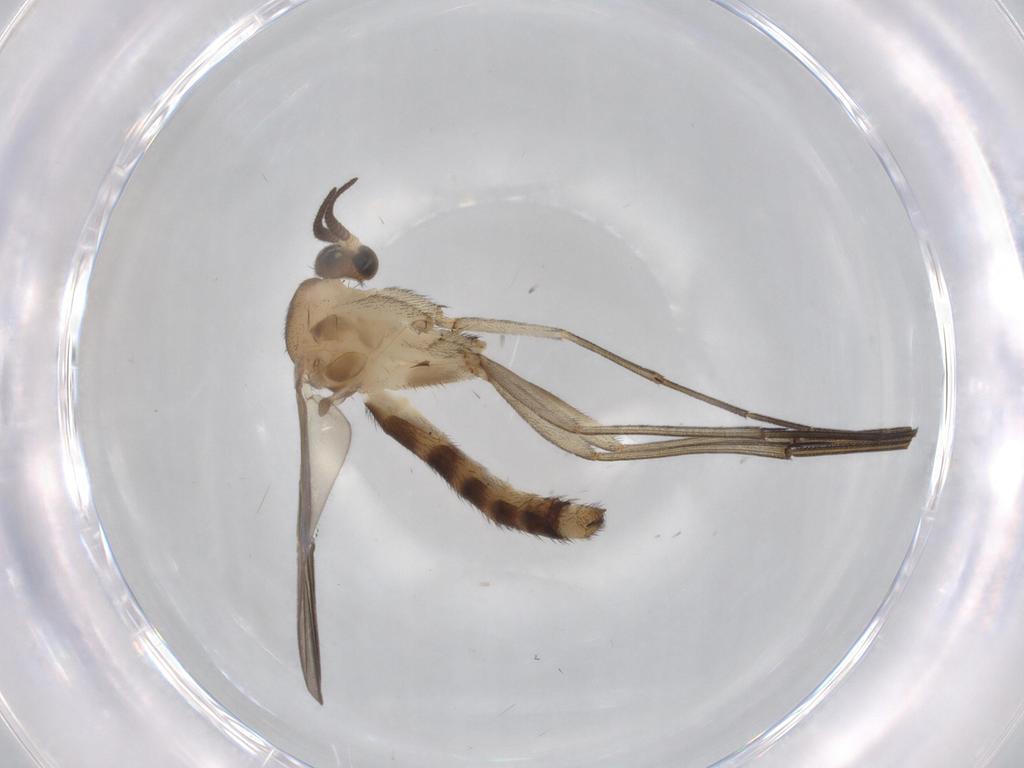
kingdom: Animalia
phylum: Arthropoda
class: Insecta
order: Diptera
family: Phoridae
